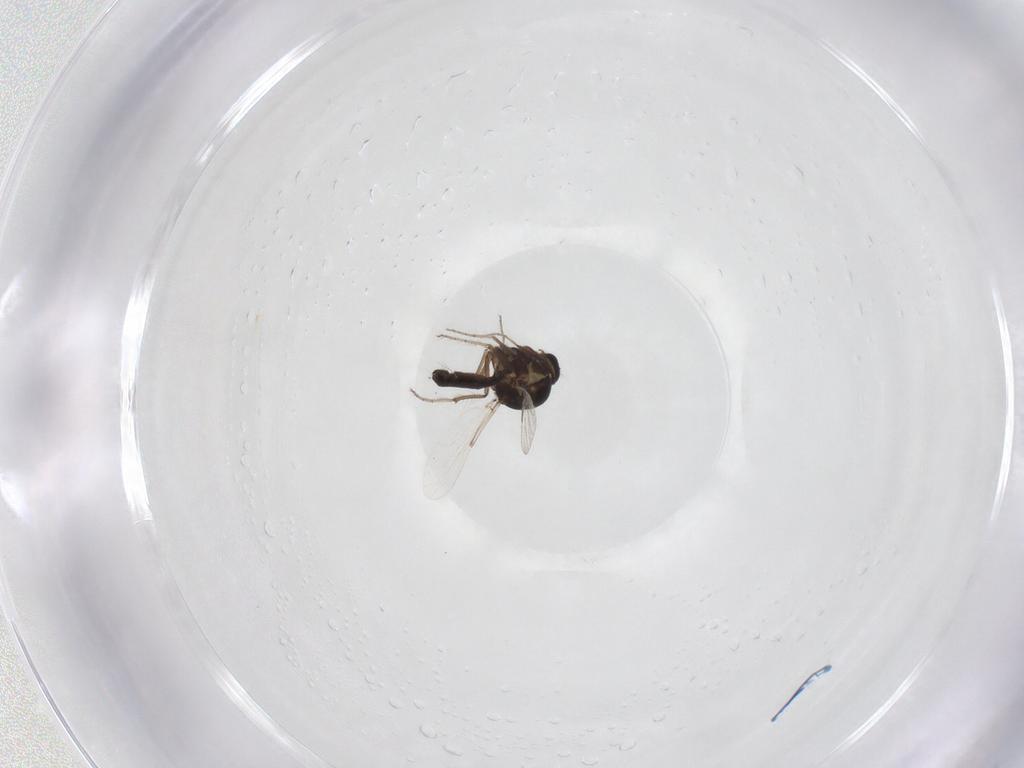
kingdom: Animalia
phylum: Arthropoda
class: Insecta
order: Diptera
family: Ceratopogonidae
